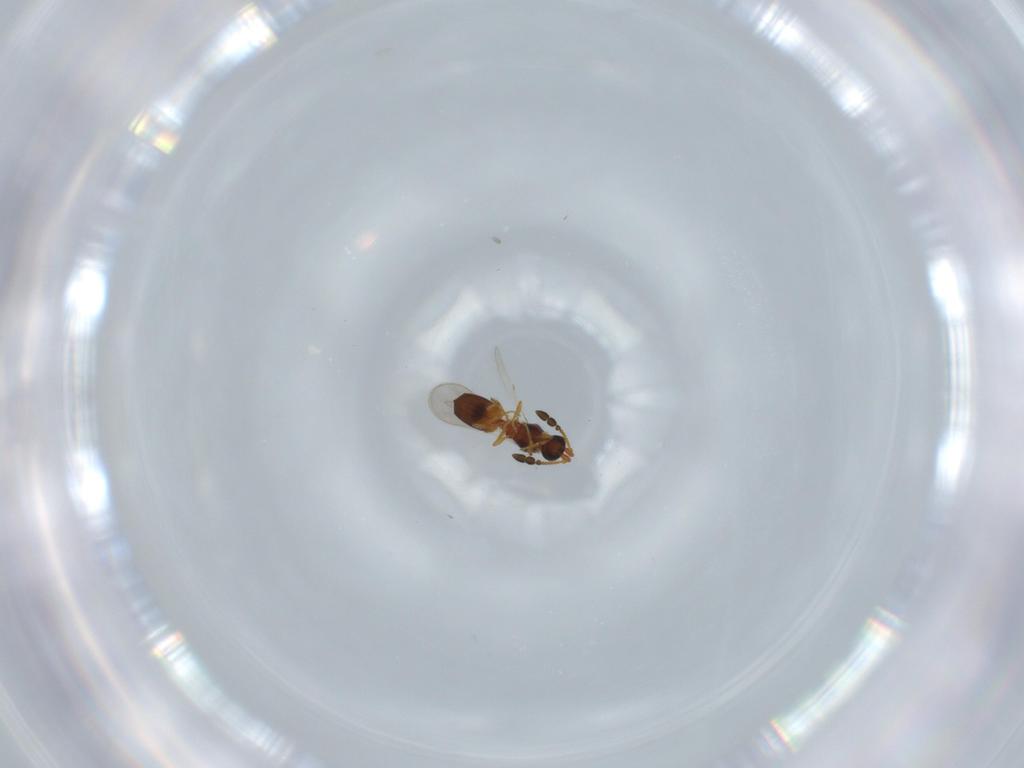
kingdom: Animalia
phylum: Arthropoda
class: Insecta
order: Hymenoptera
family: Diapriidae
